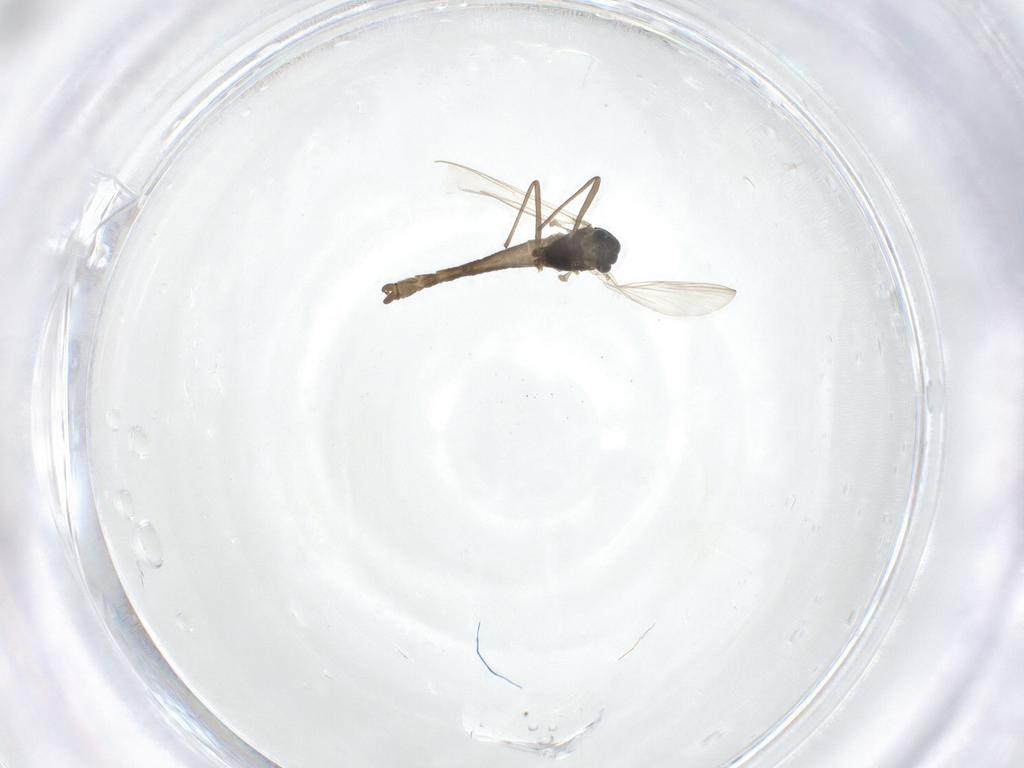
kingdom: Animalia
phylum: Arthropoda
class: Insecta
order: Diptera
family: Chironomidae
